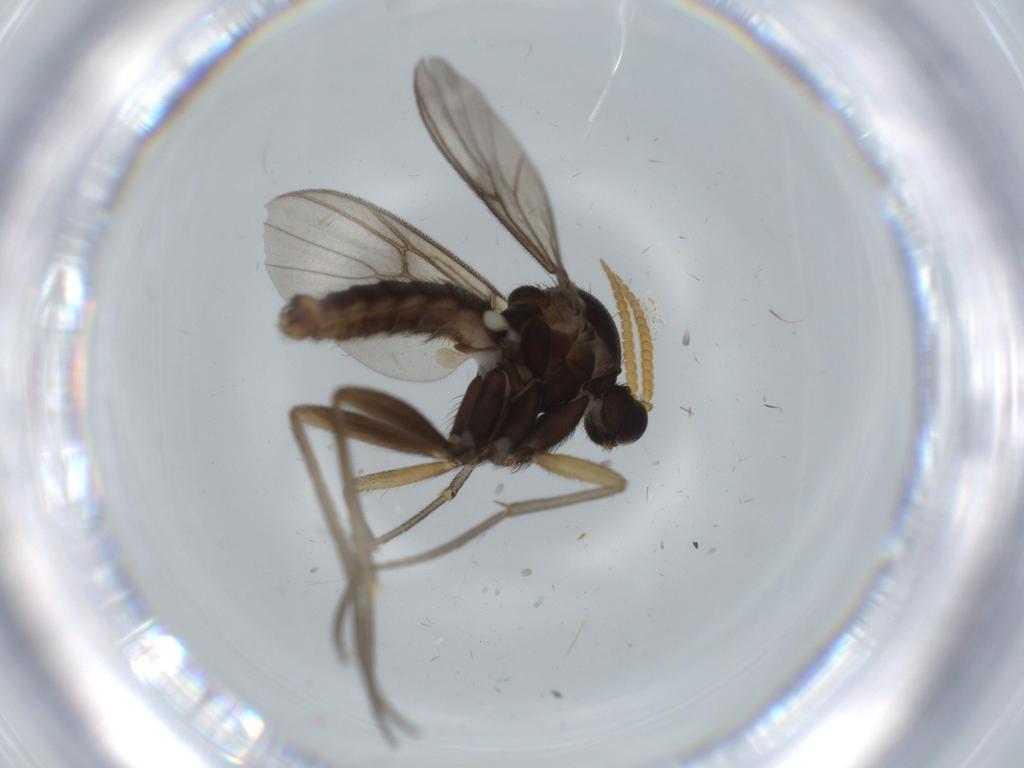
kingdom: Animalia
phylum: Arthropoda
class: Insecta
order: Diptera
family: Mycetophilidae
